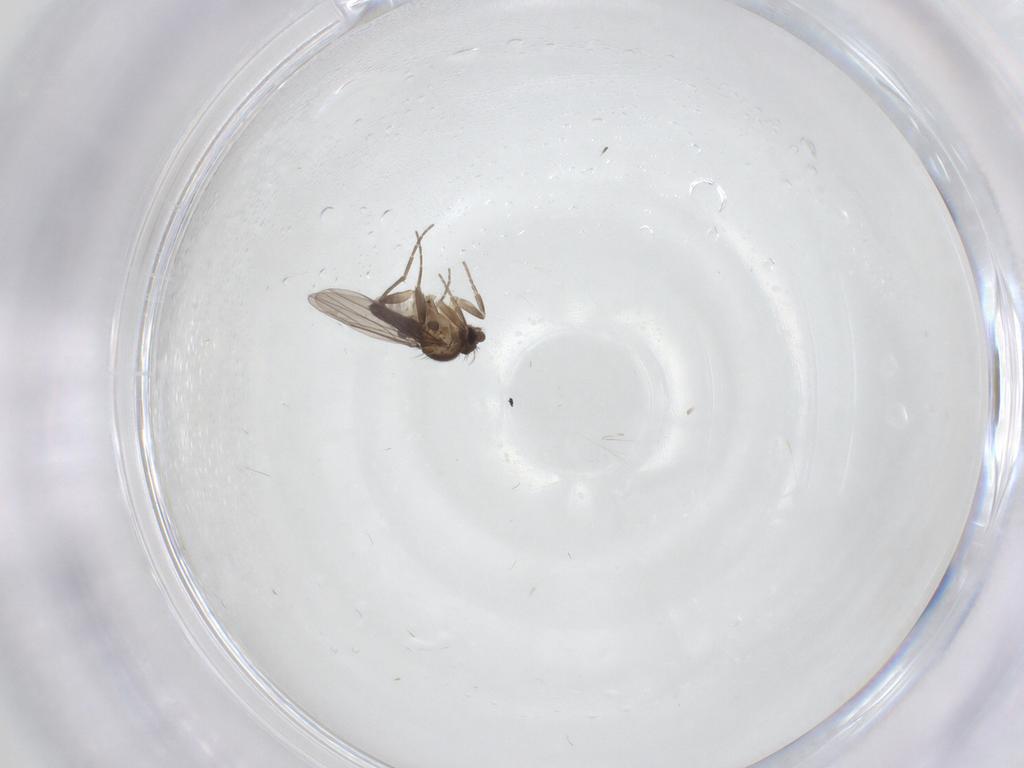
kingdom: Animalia
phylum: Arthropoda
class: Insecta
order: Diptera
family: Phoridae
